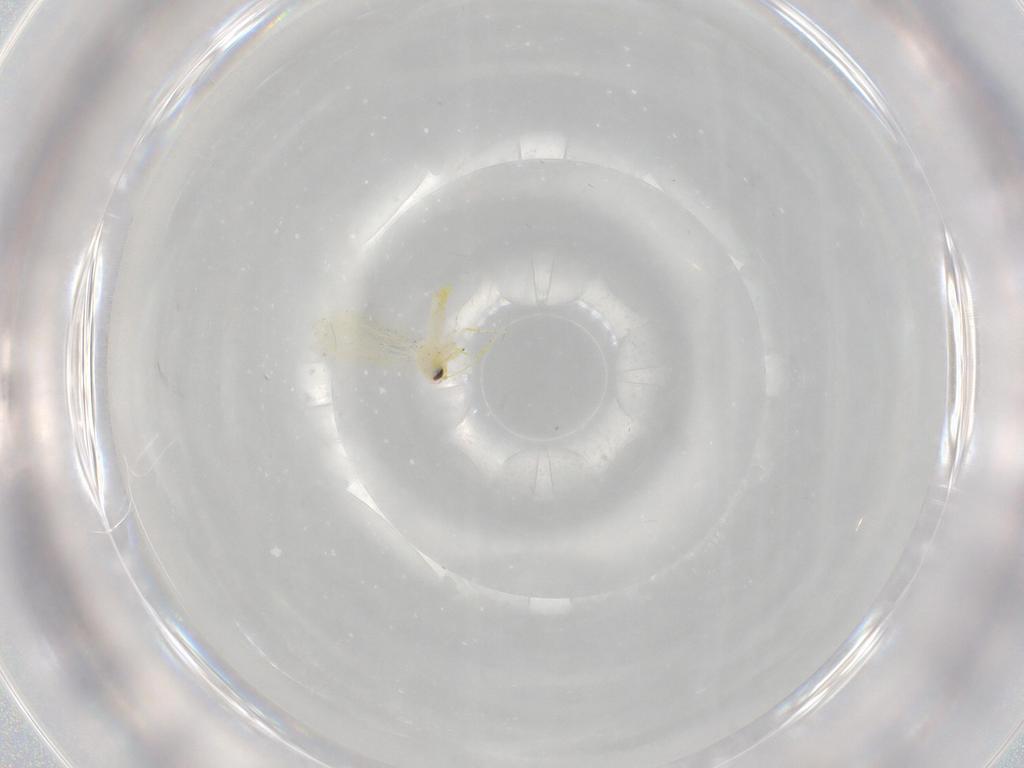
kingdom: Animalia
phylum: Arthropoda
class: Insecta
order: Hemiptera
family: Aleyrodidae
